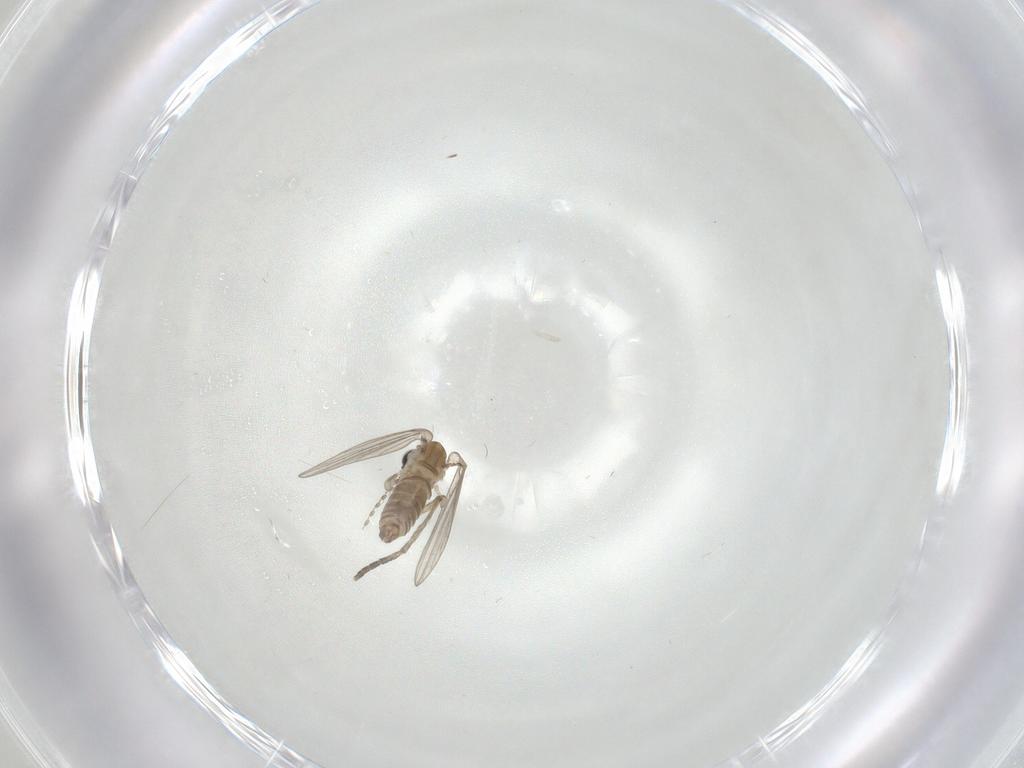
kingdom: Animalia
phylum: Arthropoda
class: Insecta
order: Diptera
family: Psychodidae
